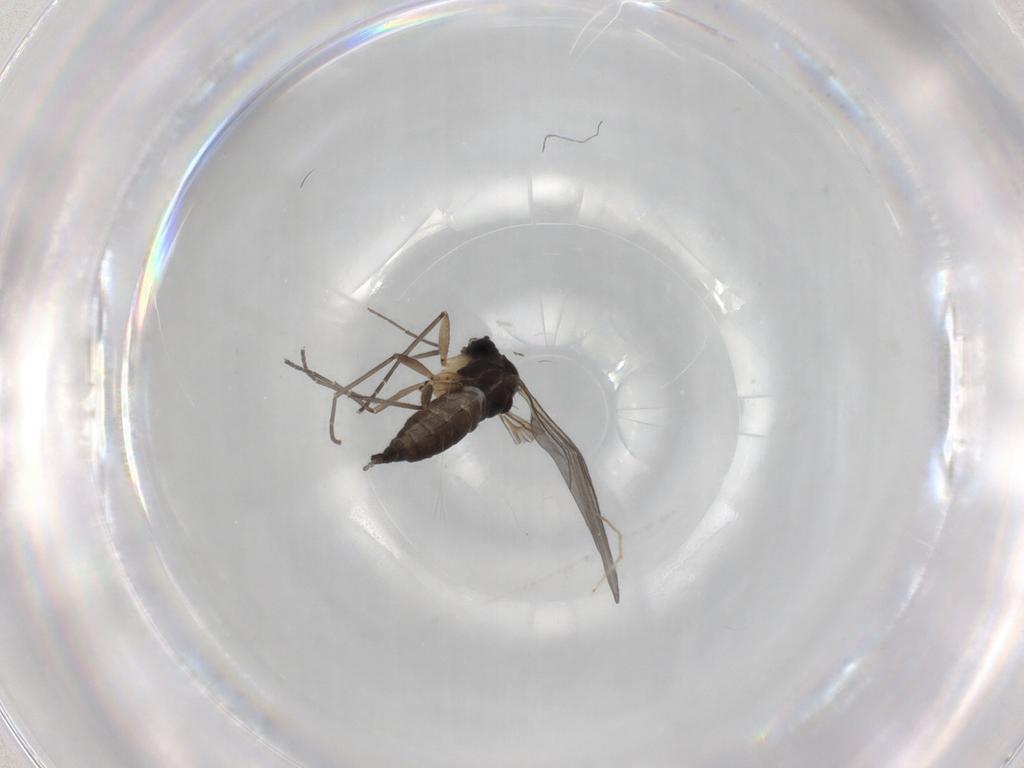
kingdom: Animalia
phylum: Arthropoda
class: Insecta
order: Diptera
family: Sciaridae
